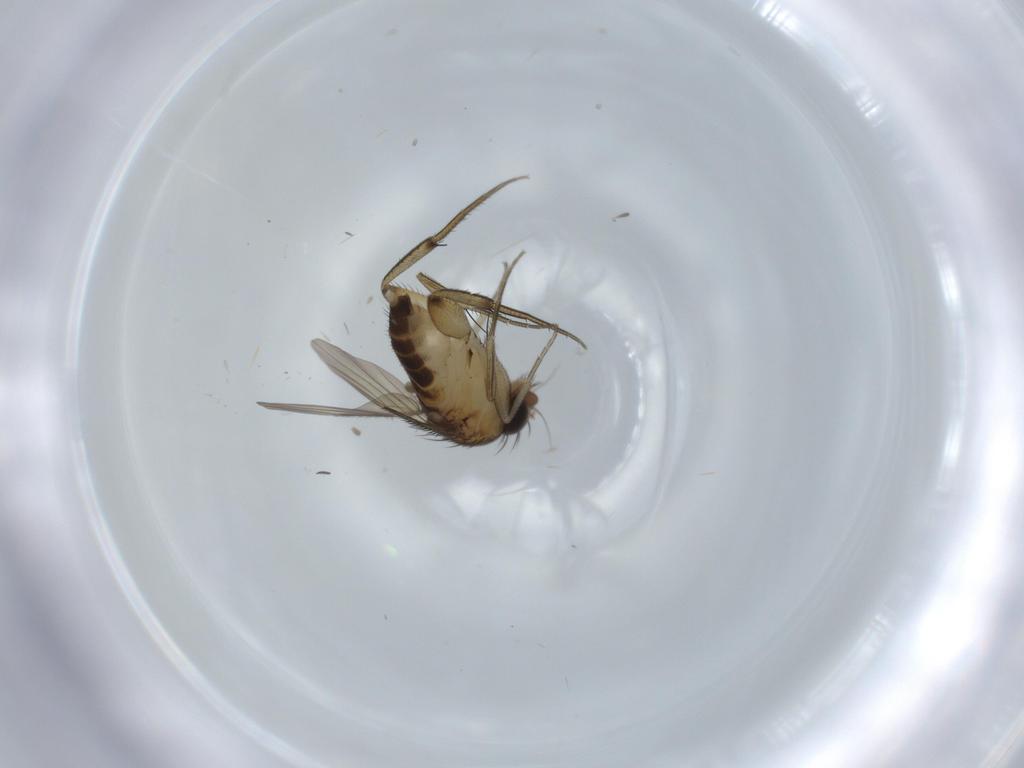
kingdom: Animalia
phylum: Arthropoda
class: Insecta
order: Diptera
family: Phoridae
